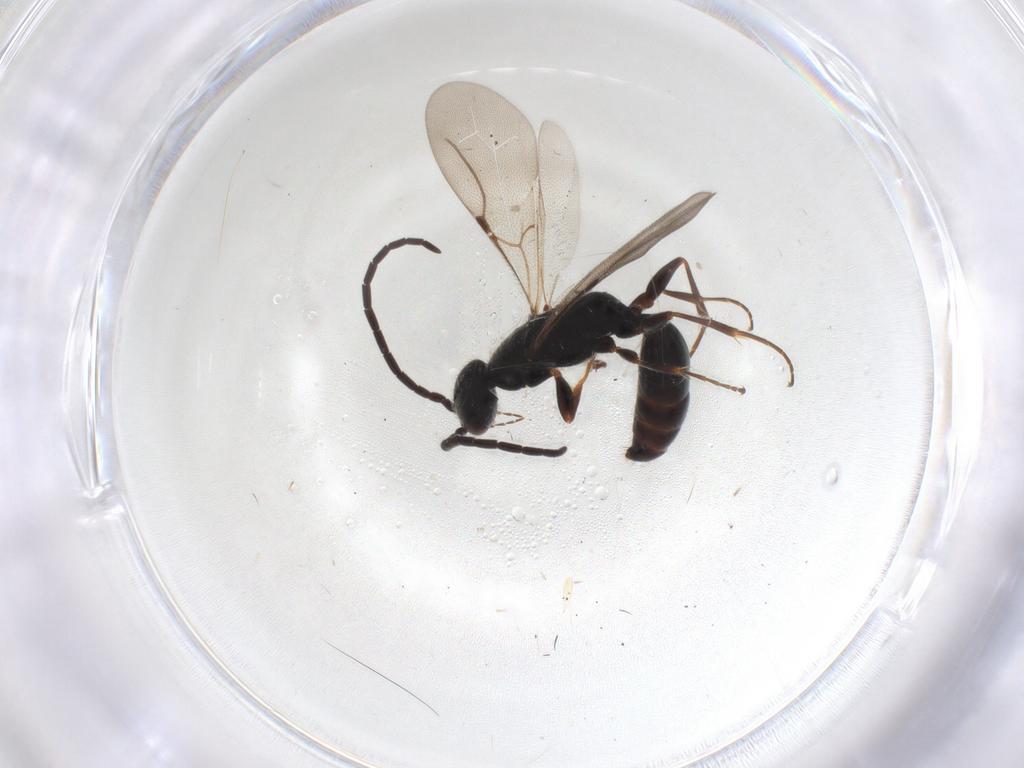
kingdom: Animalia
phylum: Arthropoda
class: Insecta
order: Hymenoptera
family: Bethylidae
